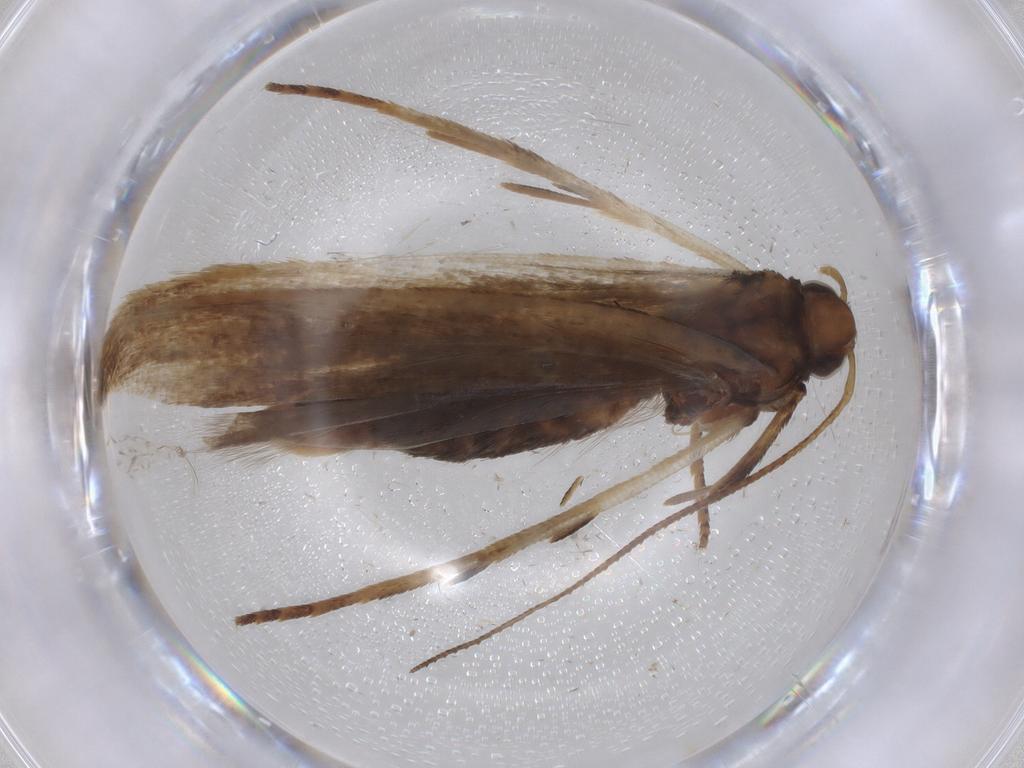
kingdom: Animalia
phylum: Arthropoda
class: Insecta
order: Lepidoptera
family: Gelechiidae
